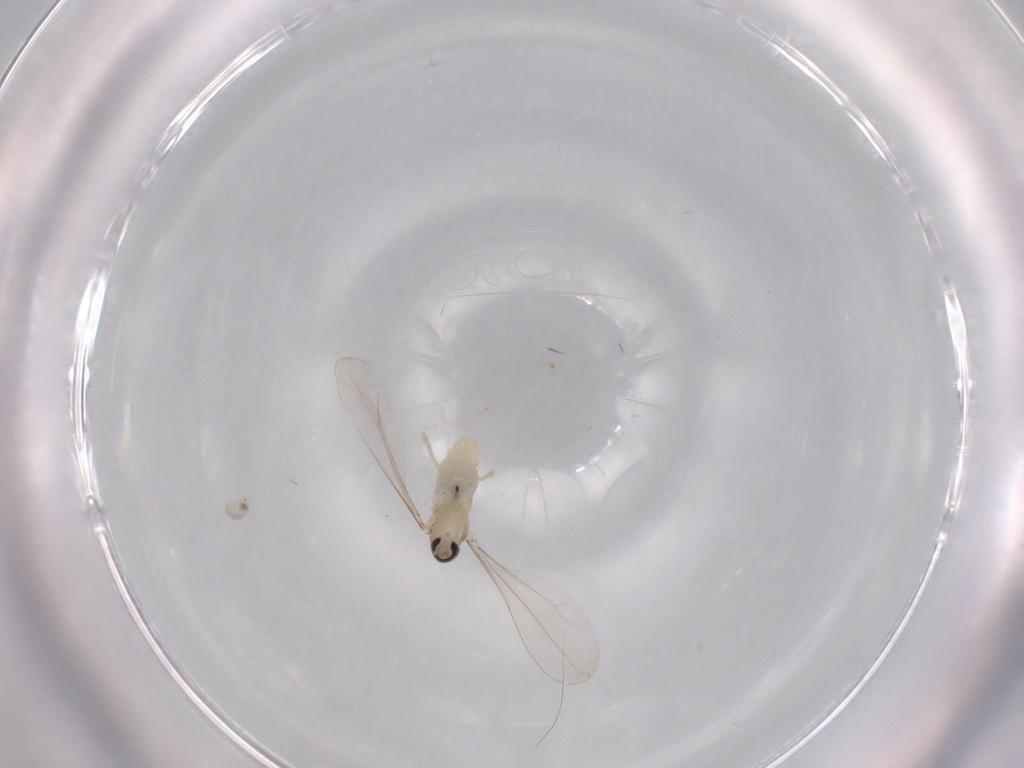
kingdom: Animalia
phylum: Arthropoda
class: Insecta
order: Diptera
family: Cecidomyiidae
